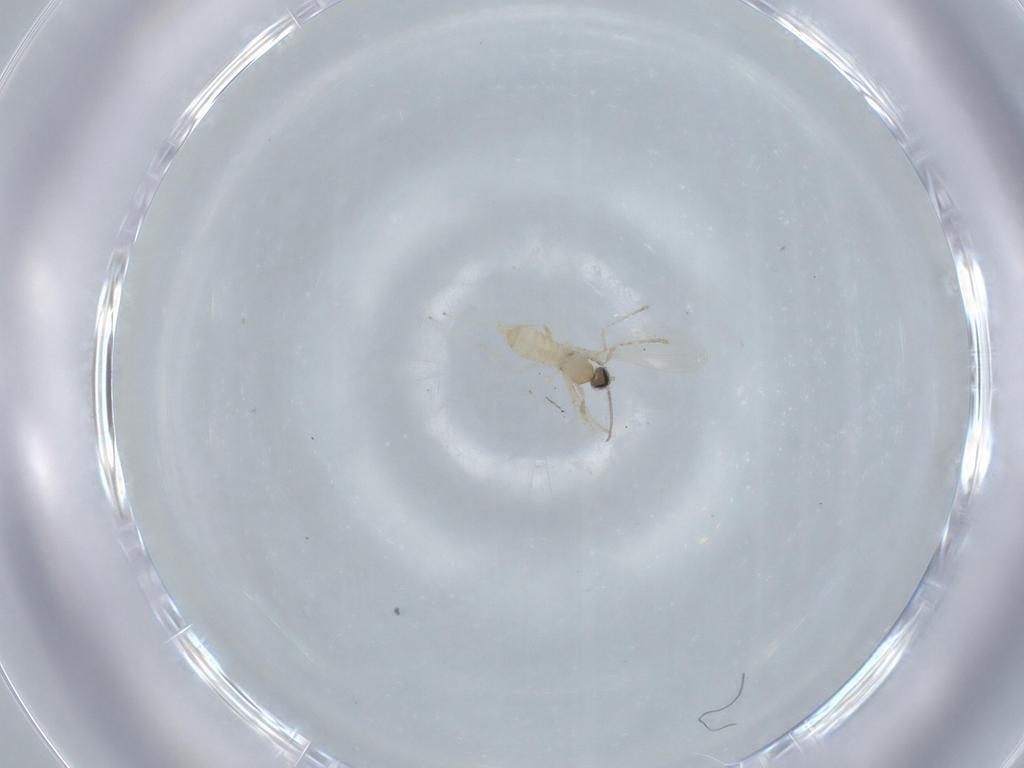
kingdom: Animalia
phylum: Arthropoda
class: Insecta
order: Diptera
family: Cecidomyiidae
